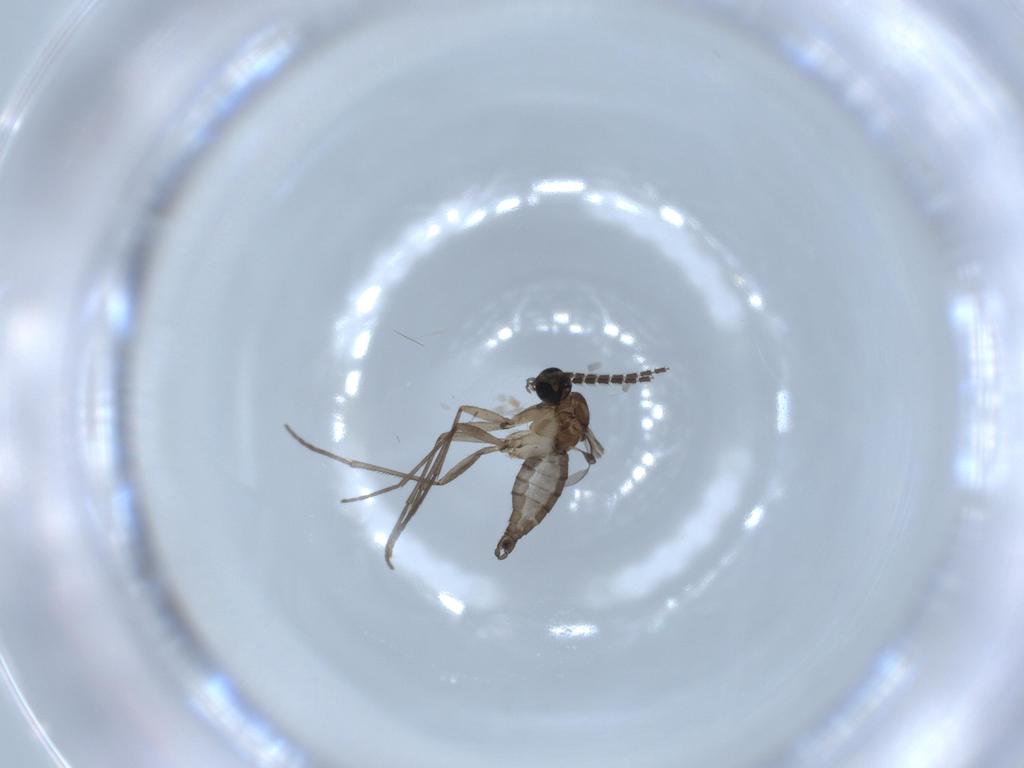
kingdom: Animalia
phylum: Arthropoda
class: Insecta
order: Diptera
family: Sciaridae
